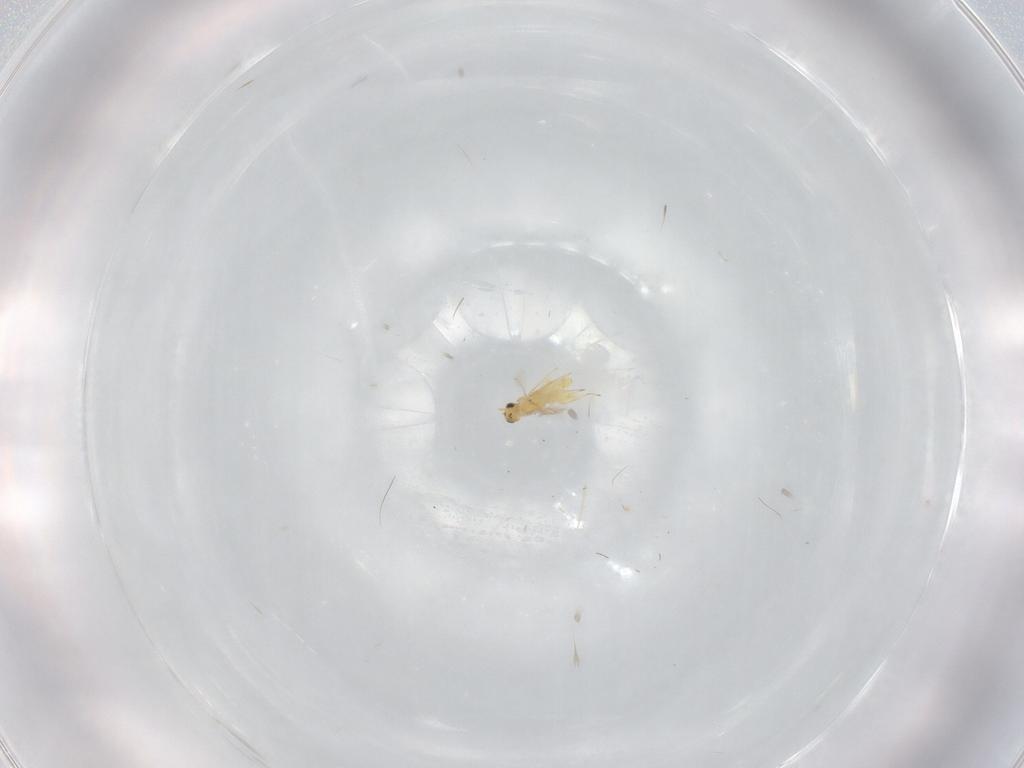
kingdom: Animalia
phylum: Arthropoda
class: Insecta
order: Hymenoptera
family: Mymaridae
